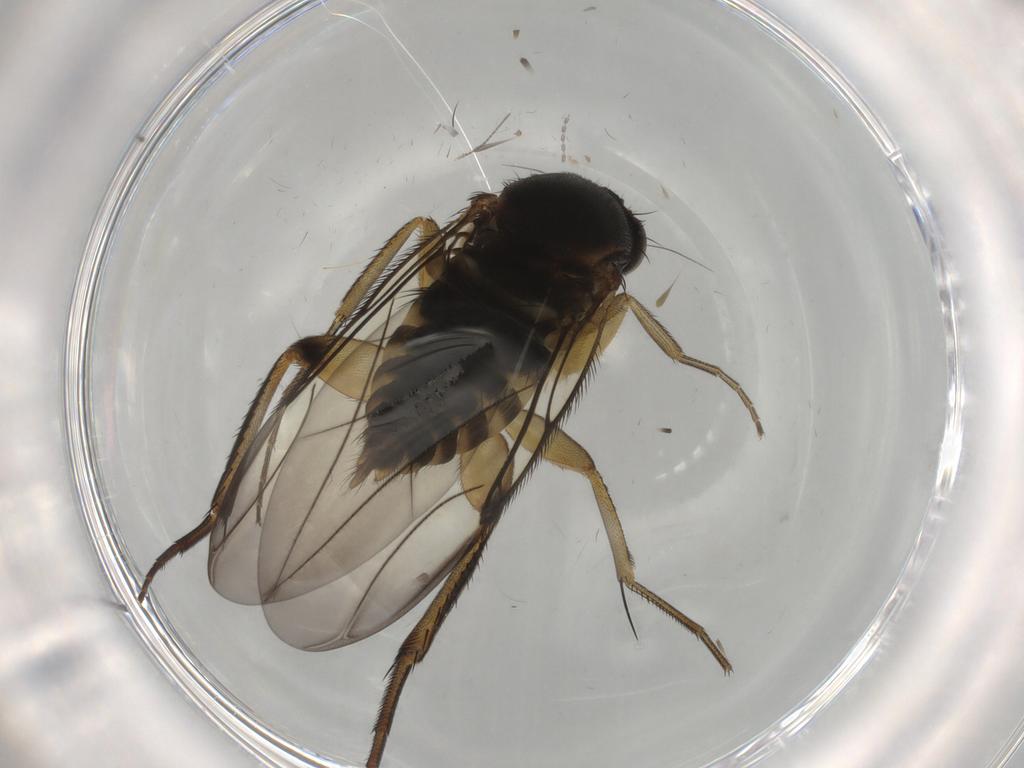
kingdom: Animalia
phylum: Arthropoda
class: Insecta
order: Diptera
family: Phoridae
